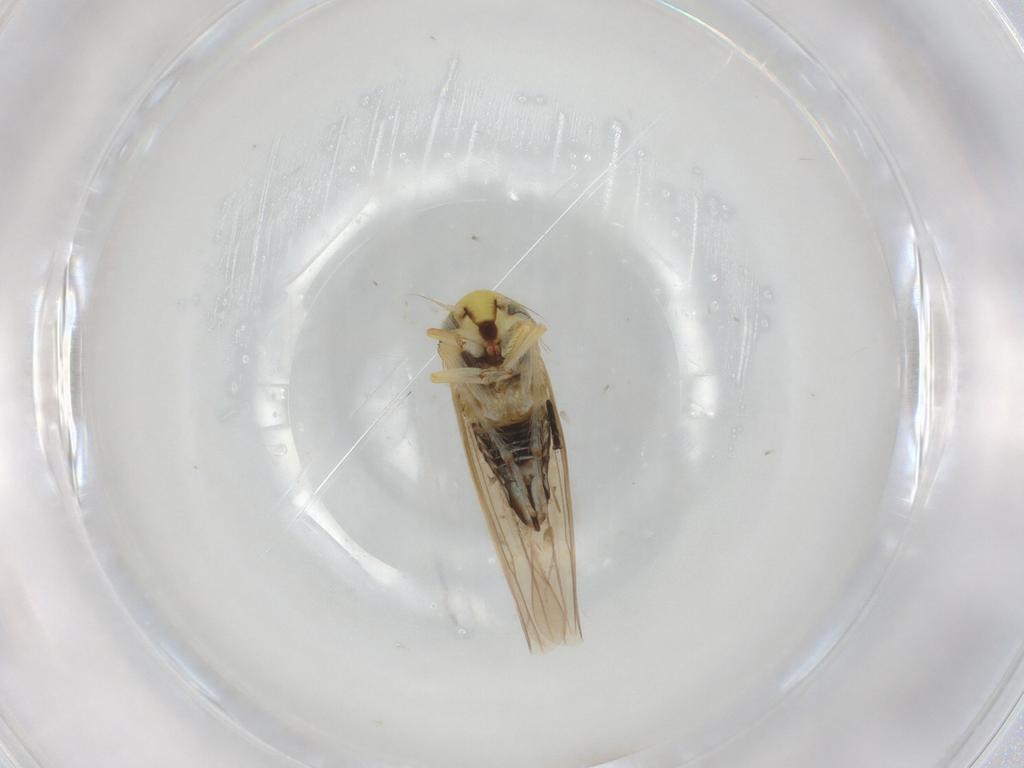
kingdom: Animalia
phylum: Arthropoda
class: Insecta
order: Hemiptera
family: Cicadellidae
